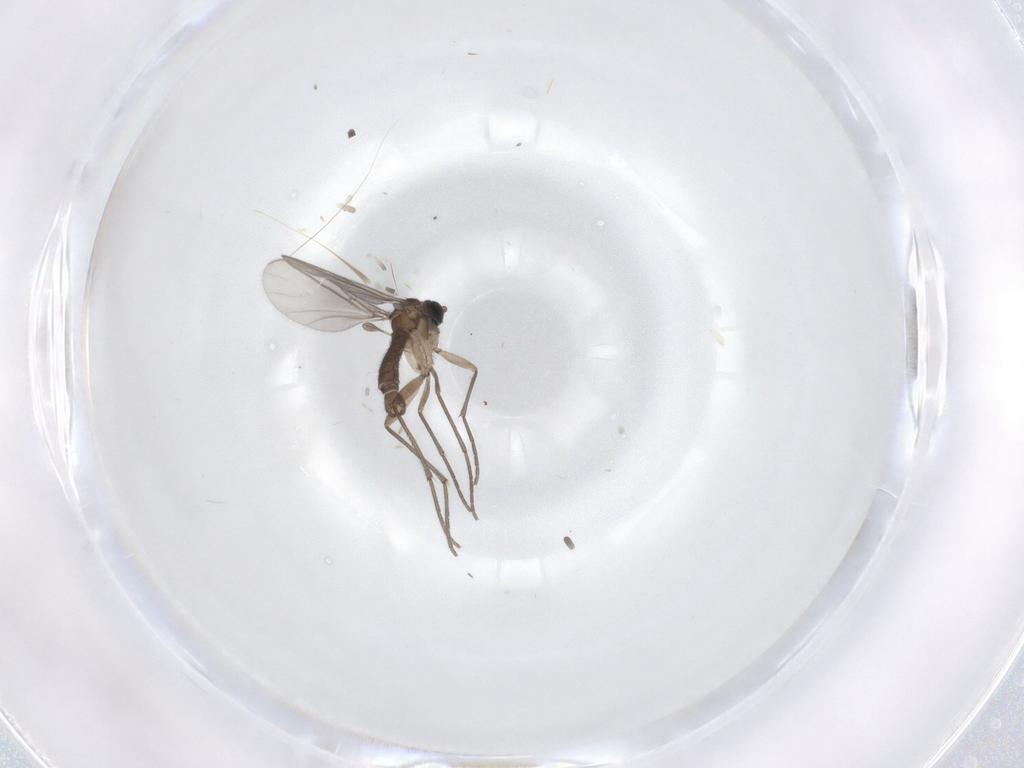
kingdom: Animalia
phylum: Arthropoda
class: Insecta
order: Diptera
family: Sciaridae
